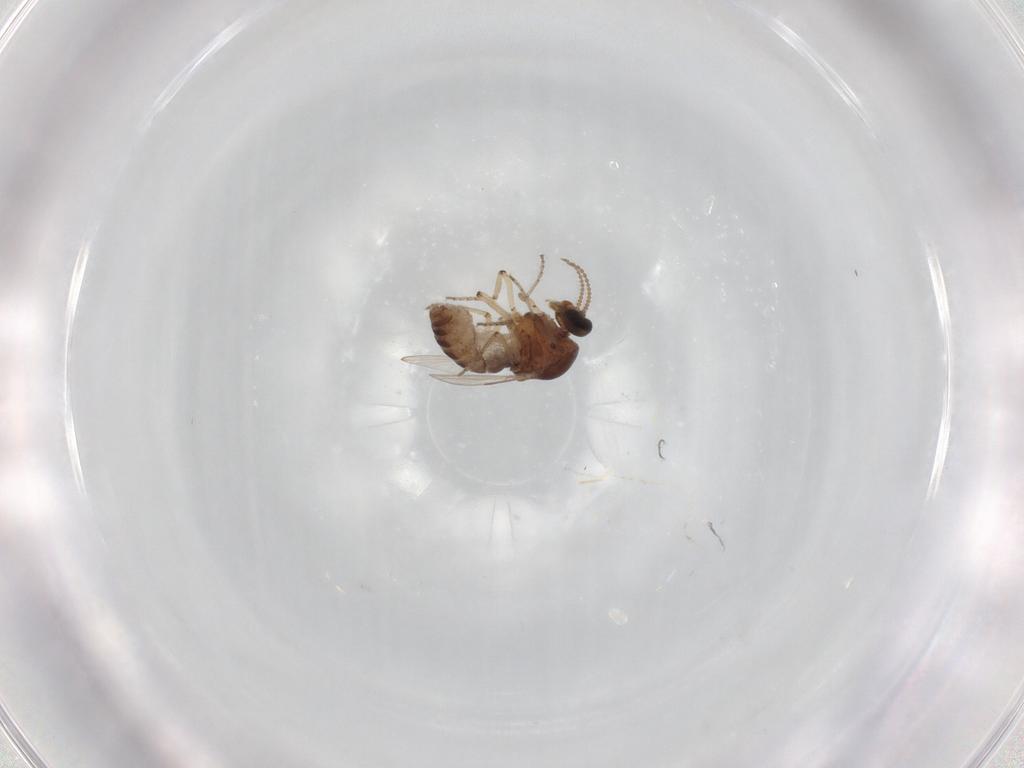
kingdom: Animalia
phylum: Arthropoda
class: Insecta
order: Diptera
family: Ceratopogonidae
